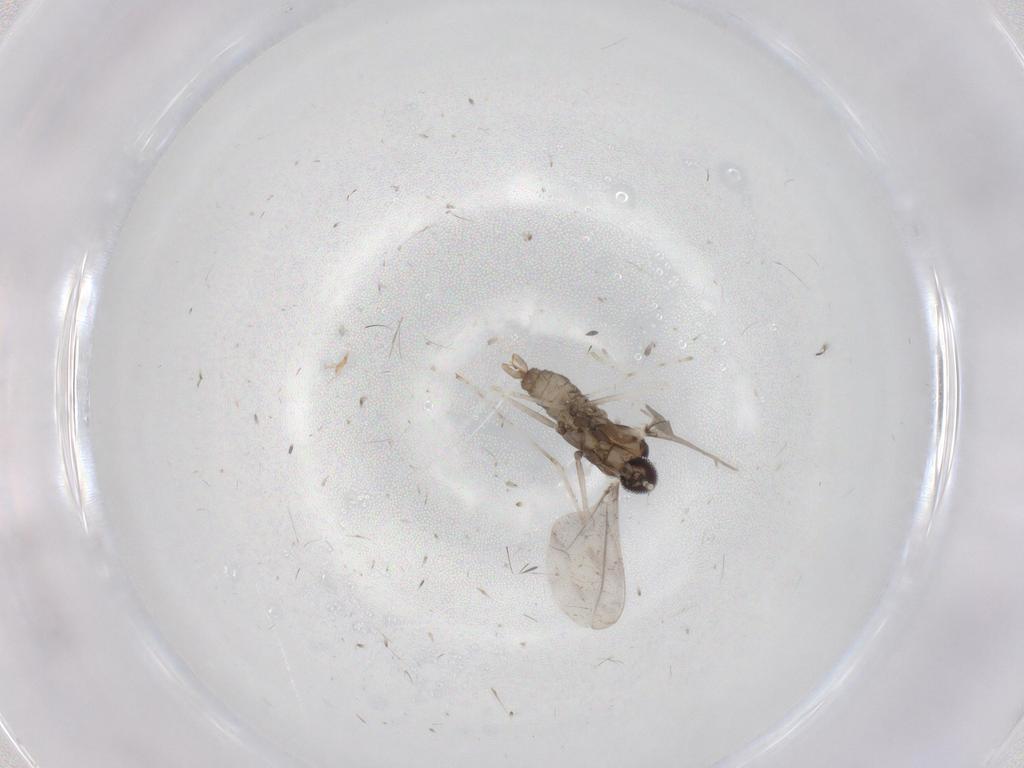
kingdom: Animalia
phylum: Arthropoda
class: Insecta
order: Diptera
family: Cecidomyiidae
